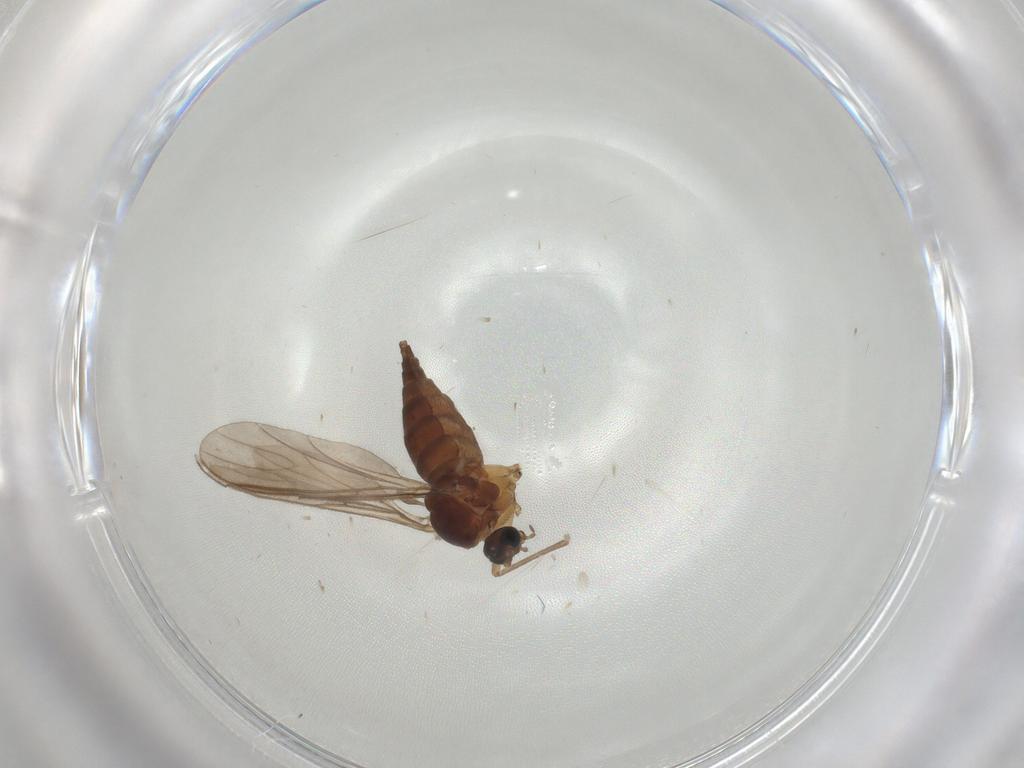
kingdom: Animalia
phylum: Arthropoda
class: Insecta
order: Diptera
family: Sciaridae
